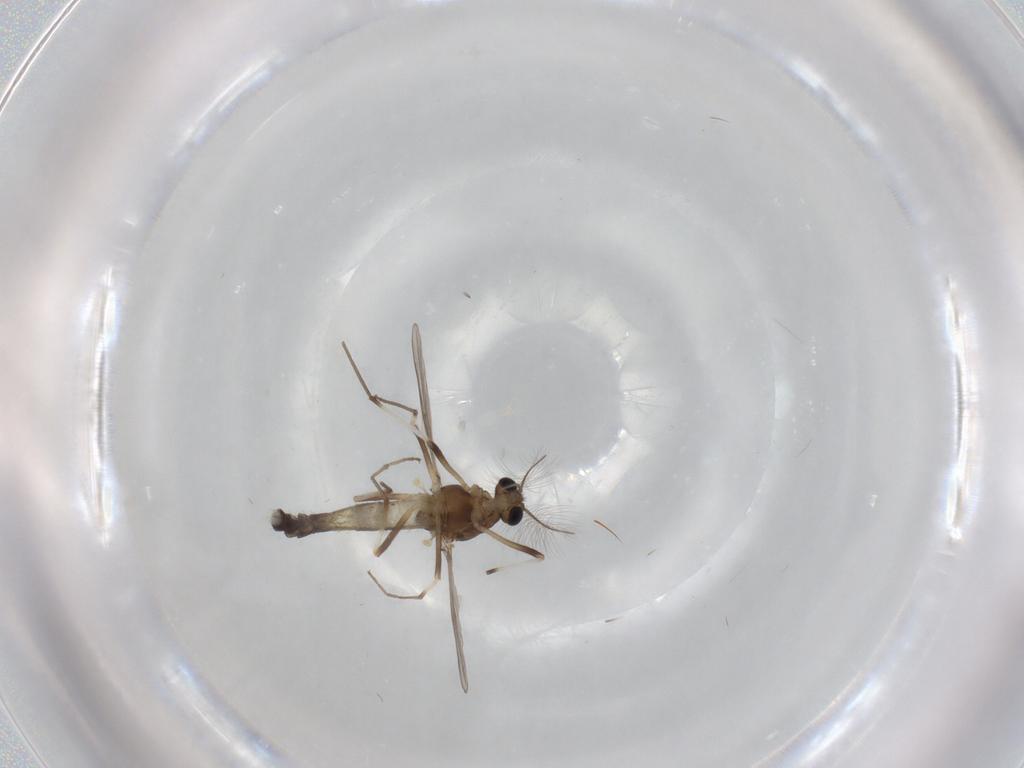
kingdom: Animalia
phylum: Arthropoda
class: Insecta
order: Diptera
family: Chironomidae
